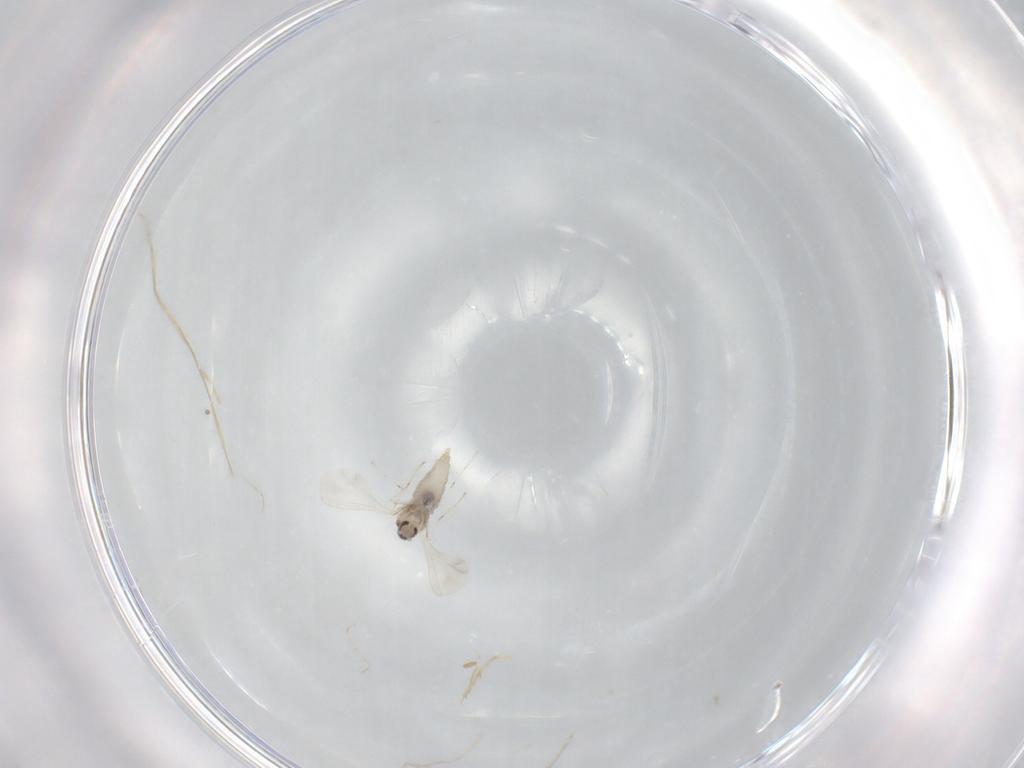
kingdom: Animalia
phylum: Arthropoda
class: Insecta
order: Diptera
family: Cecidomyiidae
